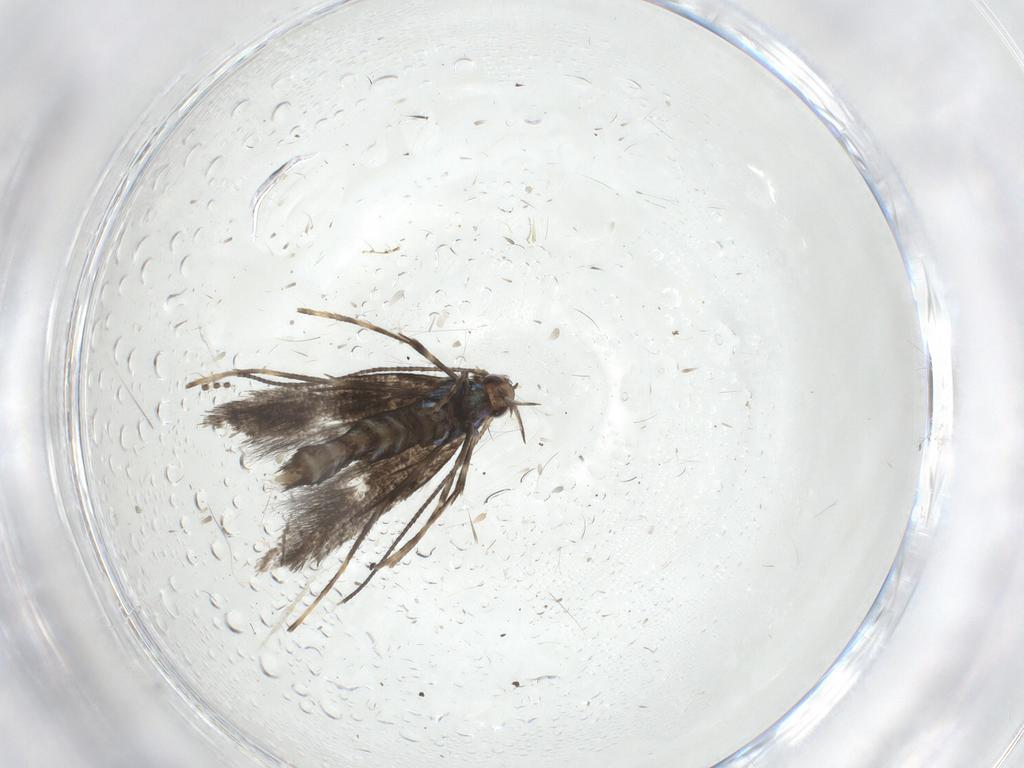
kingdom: Animalia
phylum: Arthropoda
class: Insecta
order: Lepidoptera
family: Gracillariidae
